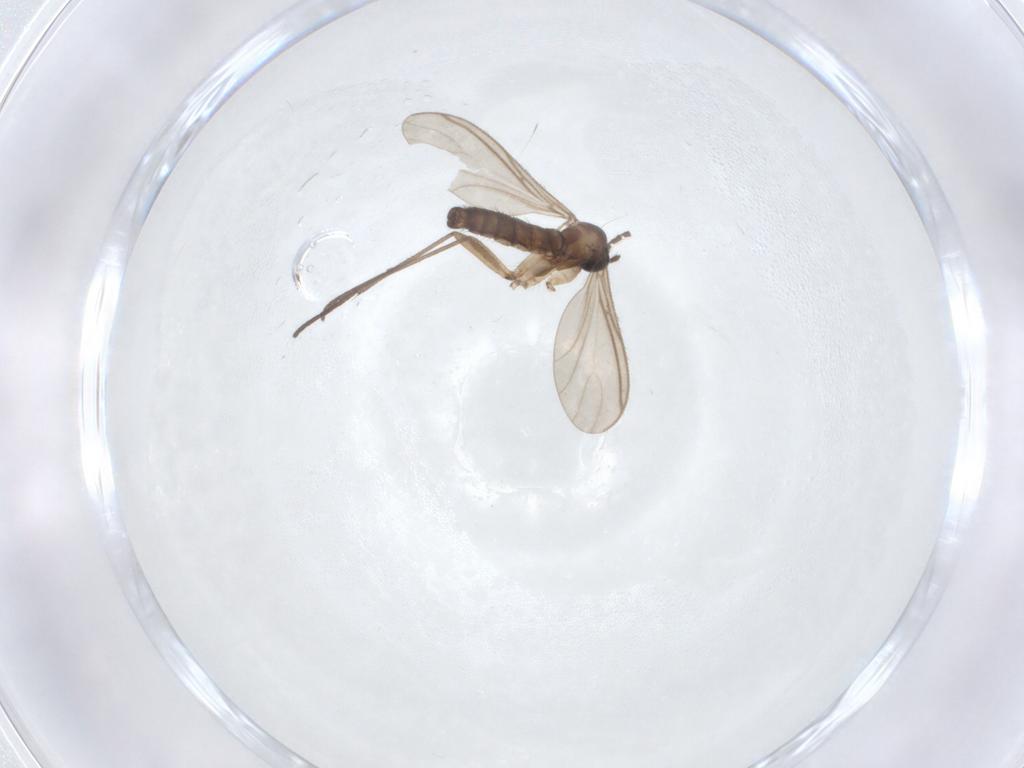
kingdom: Animalia
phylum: Arthropoda
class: Insecta
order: Diptera
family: Sciaridae
